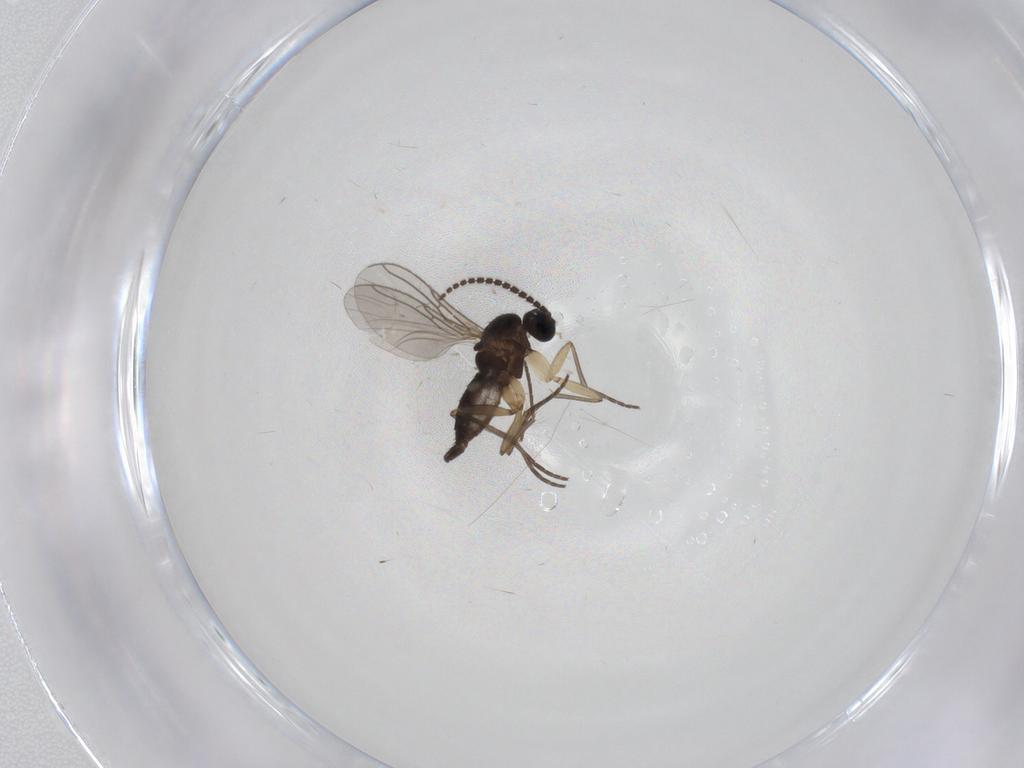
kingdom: Animalia
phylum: Arthropoda
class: Insecta
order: Diptera
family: Sciaridae
